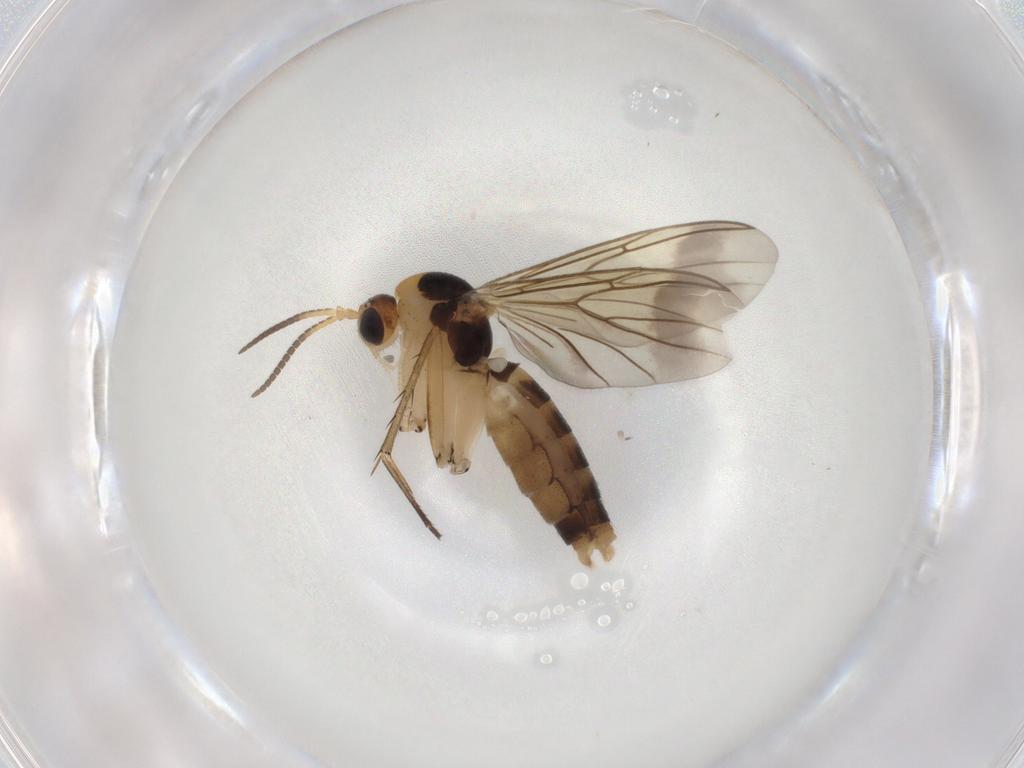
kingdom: Animalia
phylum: Arthropoda
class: Insecta
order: Diptera
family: Mycetophilidae
